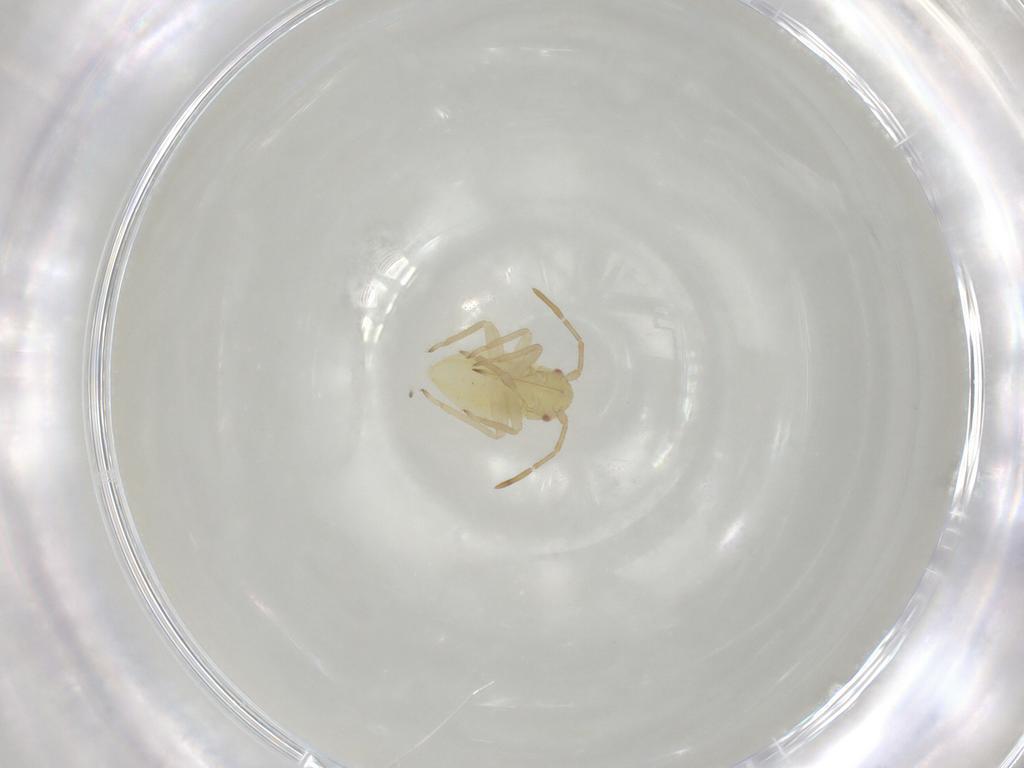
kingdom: Animalia
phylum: Arthropoda
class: Insecta
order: Hemiptera
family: Miridae
